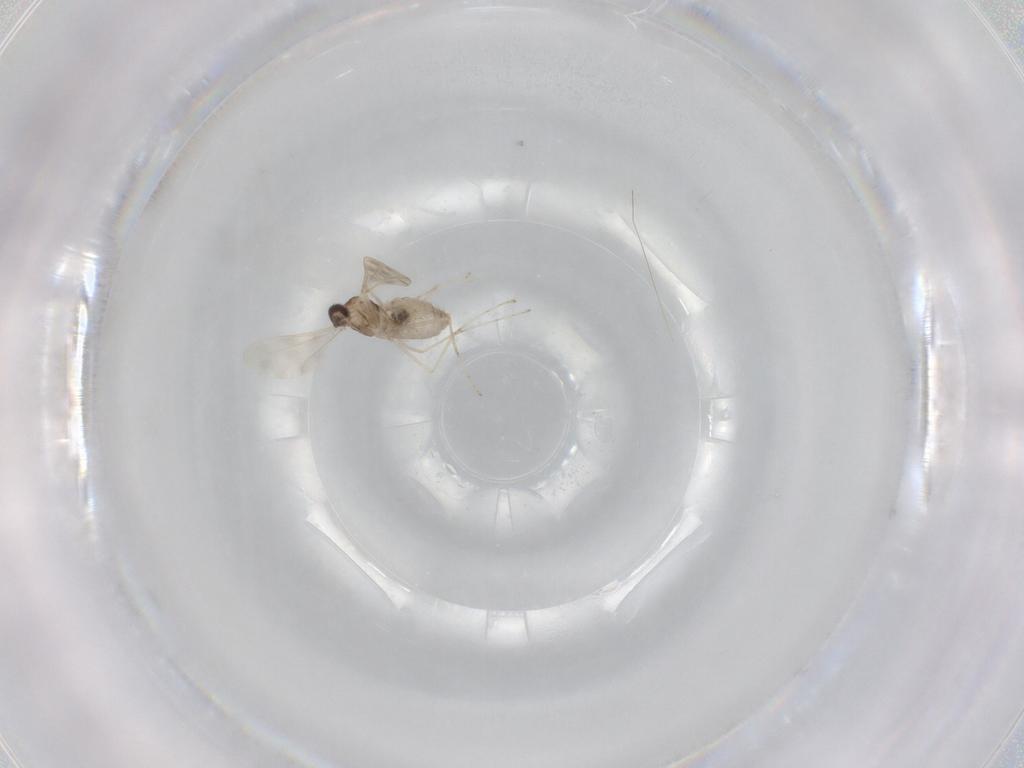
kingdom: Animalia
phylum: Arthropoda
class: Insecta
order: Diptera
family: Cecidomyiidae
